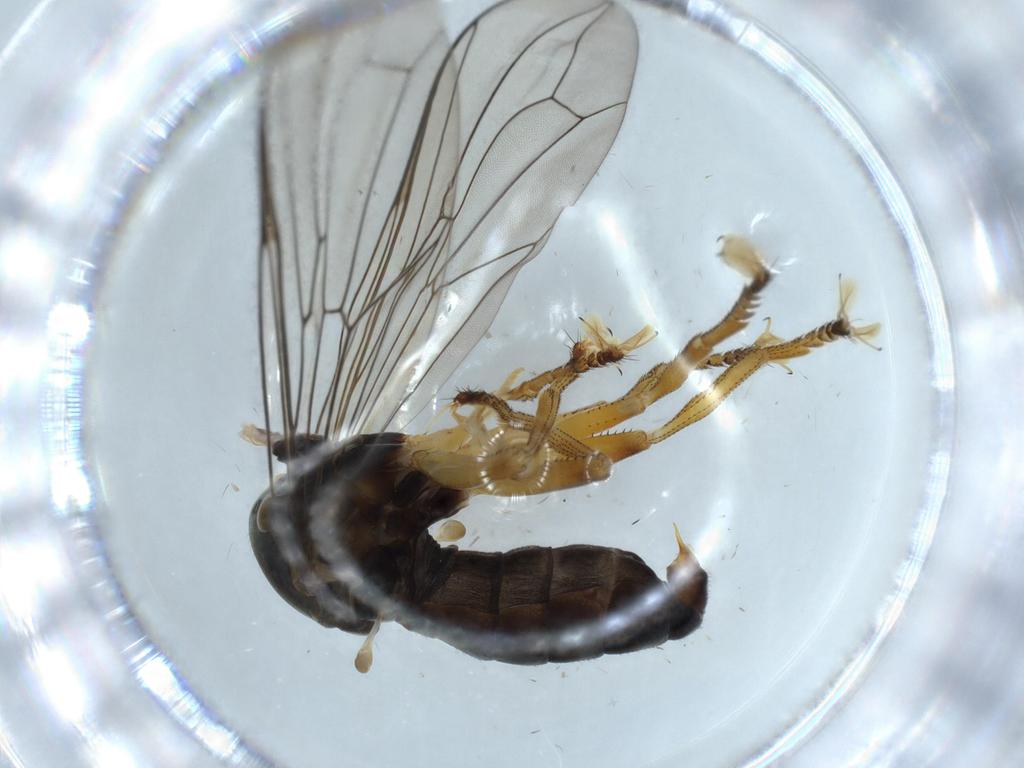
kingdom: Animalia
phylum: Arthropoda
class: Insecta
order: Diptera
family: Pipunculidae
